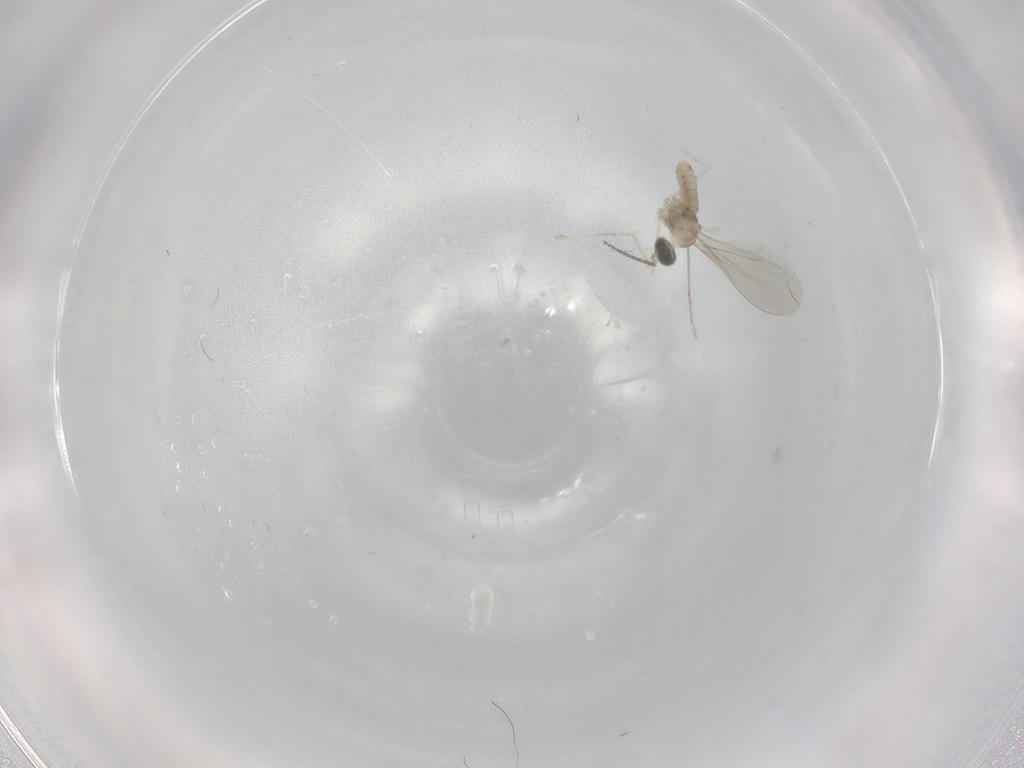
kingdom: Animalia
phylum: Arthropoda
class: Insecta
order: Diptera
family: Cecidomyiidae
